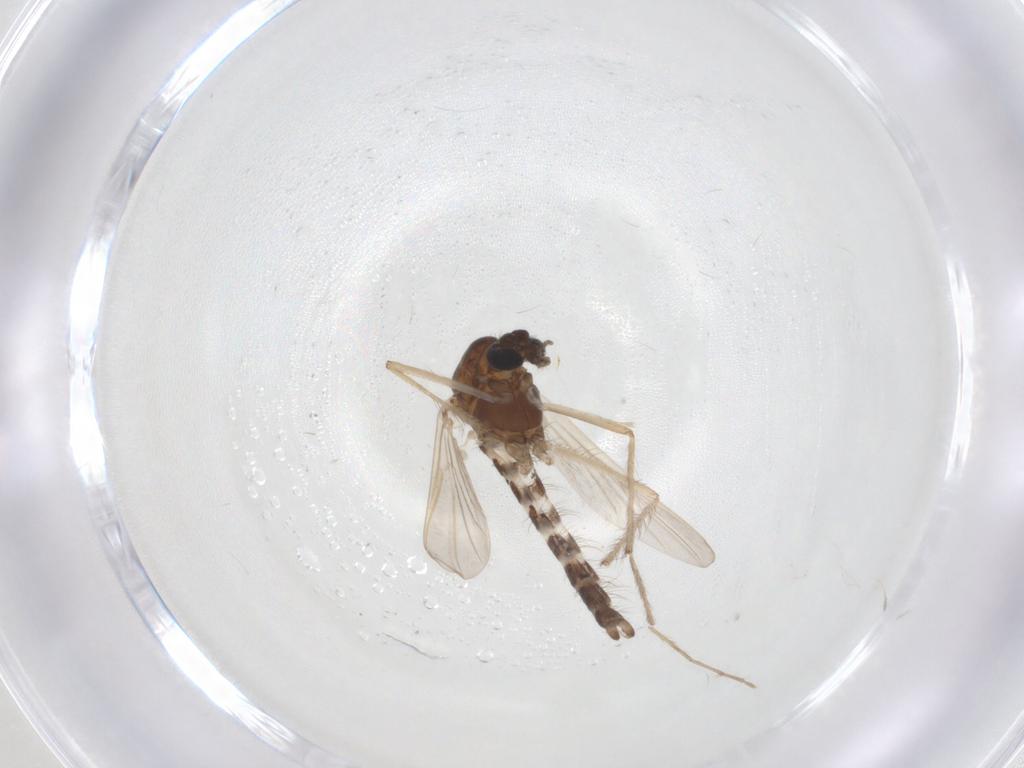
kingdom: Animalia
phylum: Arthropoda
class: Insecta
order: Diptera
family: Chironomidae
